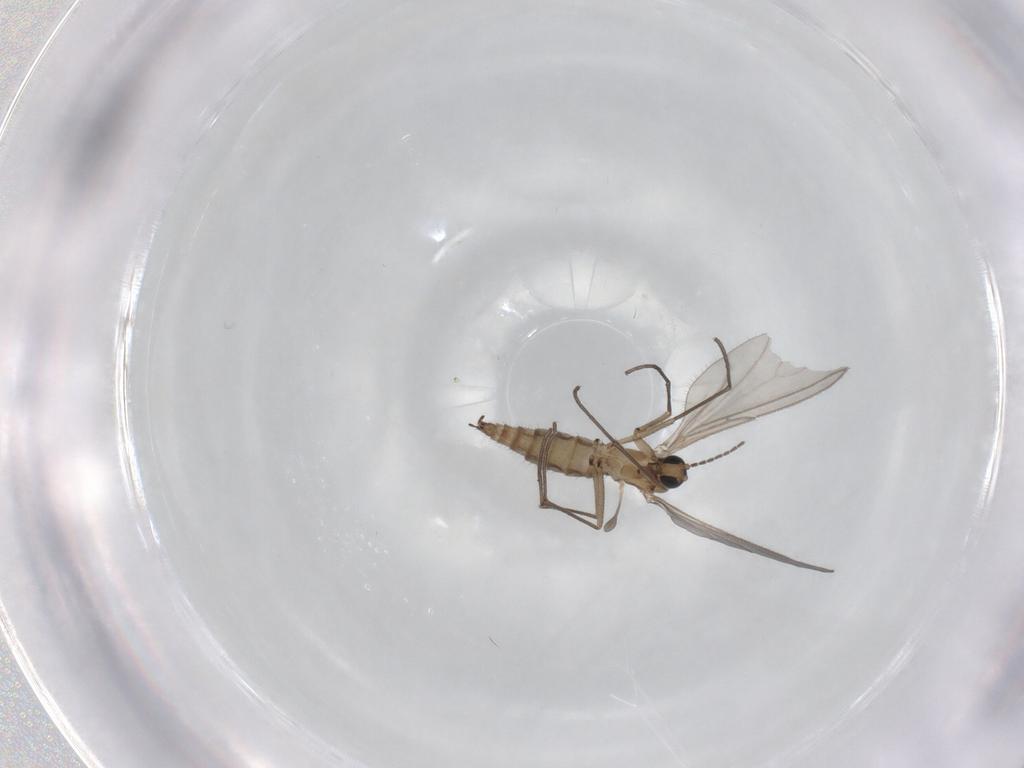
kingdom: Animalia
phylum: Arthropoda
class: Insecta
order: Diptera
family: Sciaridae
